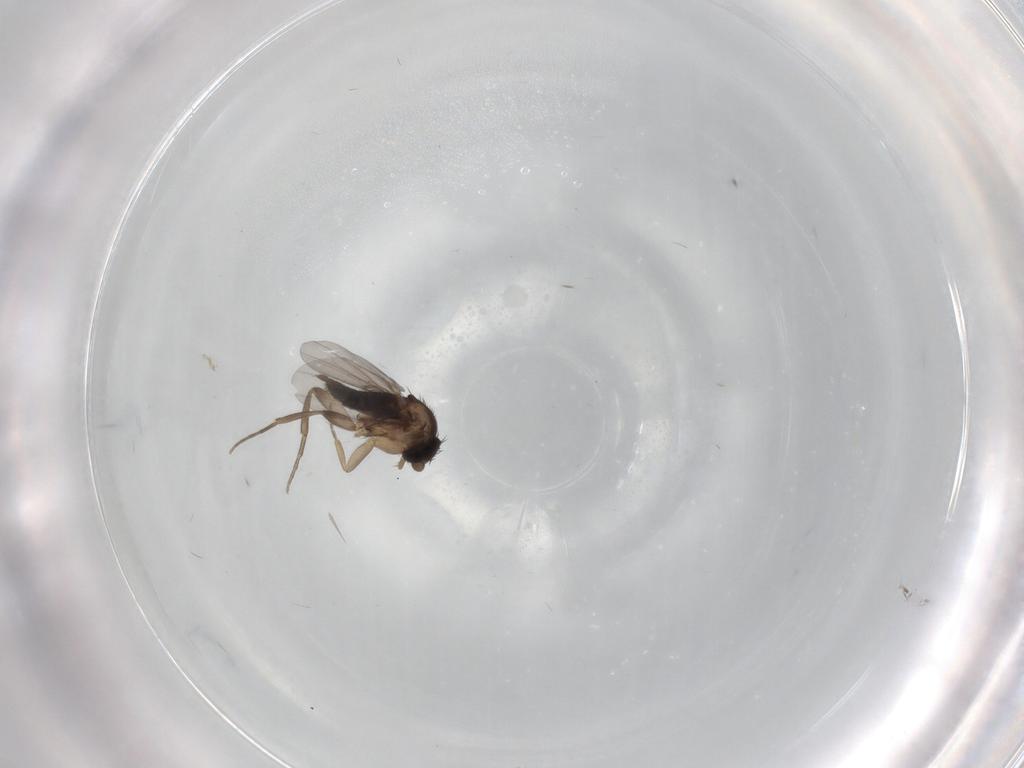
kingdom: Animalia
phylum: Arthropoda
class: Insecta
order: Diptera
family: Phoridae
